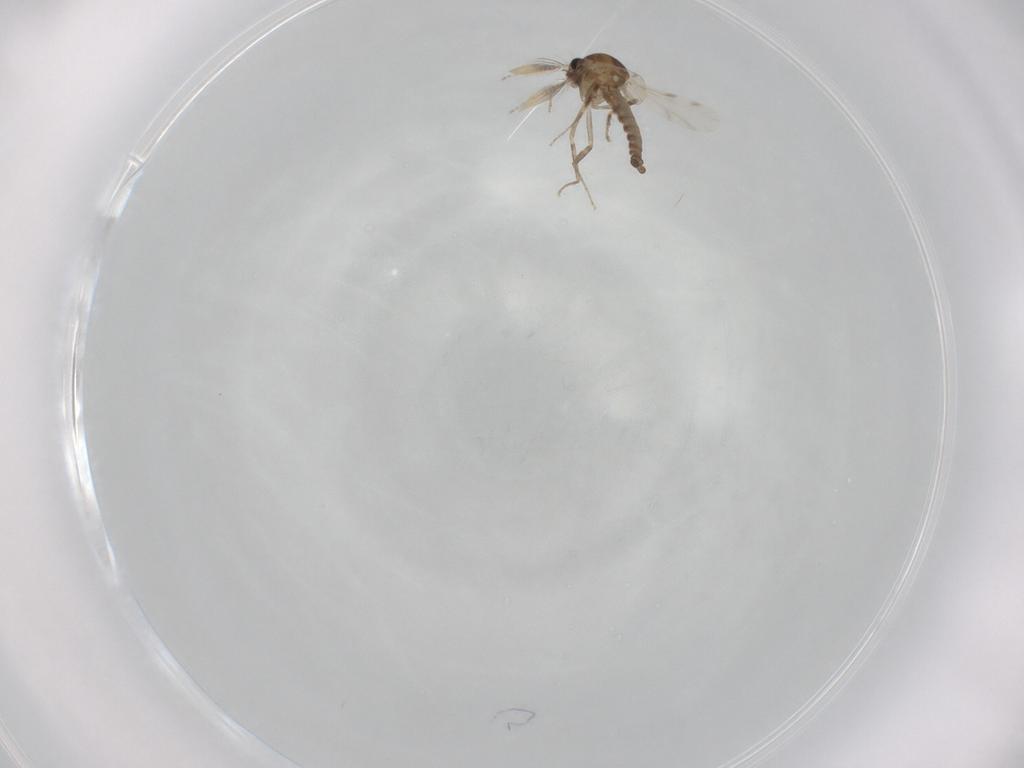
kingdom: Animalia
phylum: Arthropoda
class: Insecta
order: Diptera
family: Ceratopogonidae
